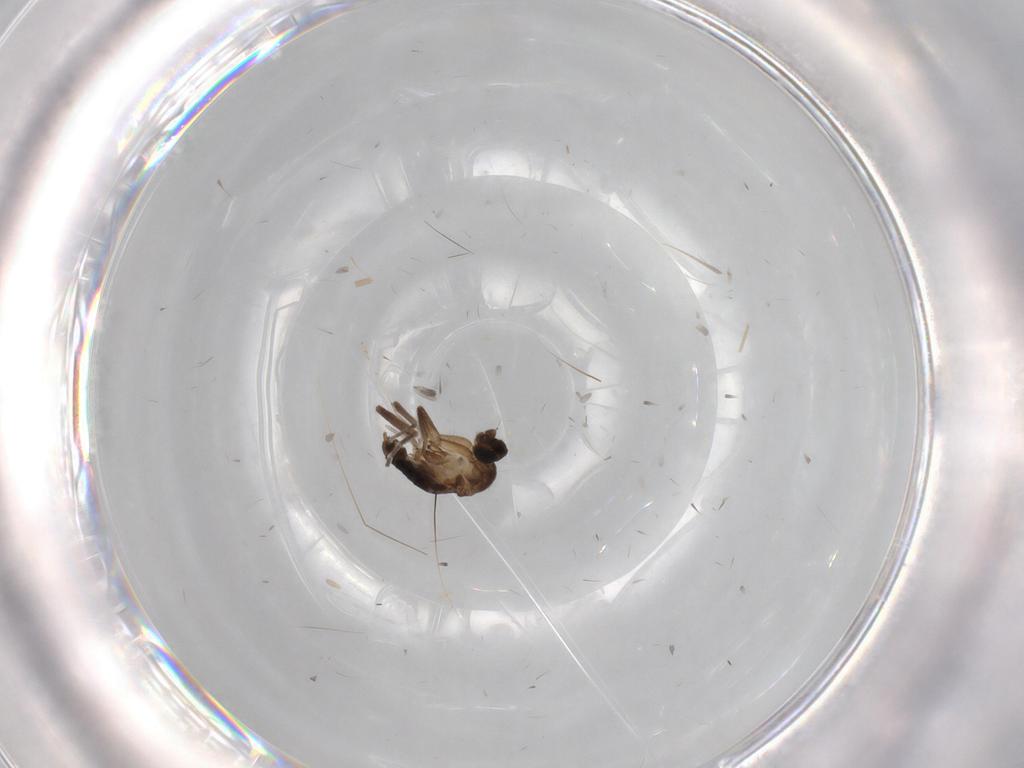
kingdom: Animalia
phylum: Arthropoda
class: Insecta
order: Diptera
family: Phoridae
